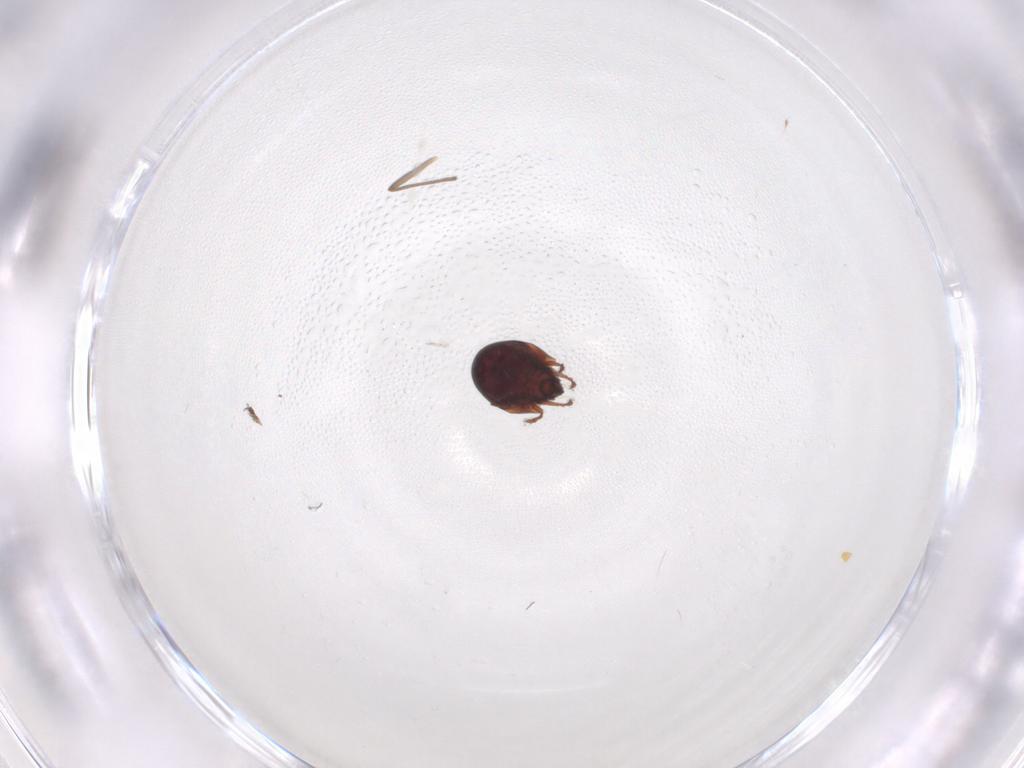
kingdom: Animalia
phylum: Arthropoda
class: Insecta
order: Diptera
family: Cecidomyiidae
